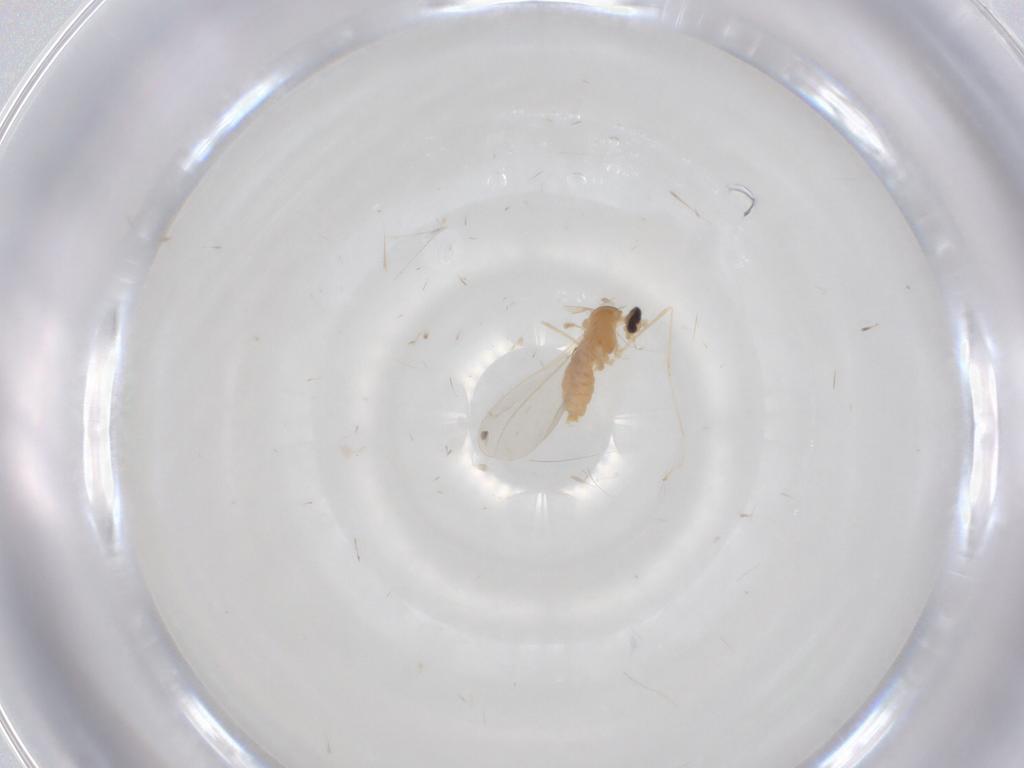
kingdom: Animalia
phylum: Arthropoda
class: Insecta
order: Diptera
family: Cecidomyiidae
